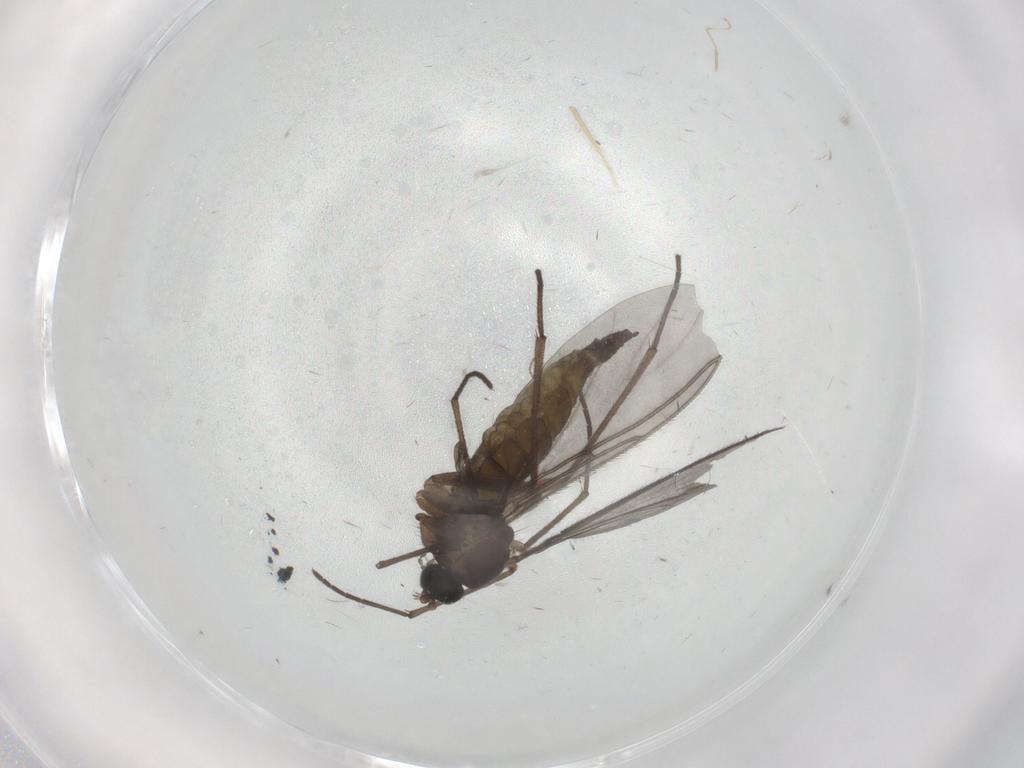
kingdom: Animalia
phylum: Arthropoda
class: Insecta
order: Diptera
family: Sciaridae
